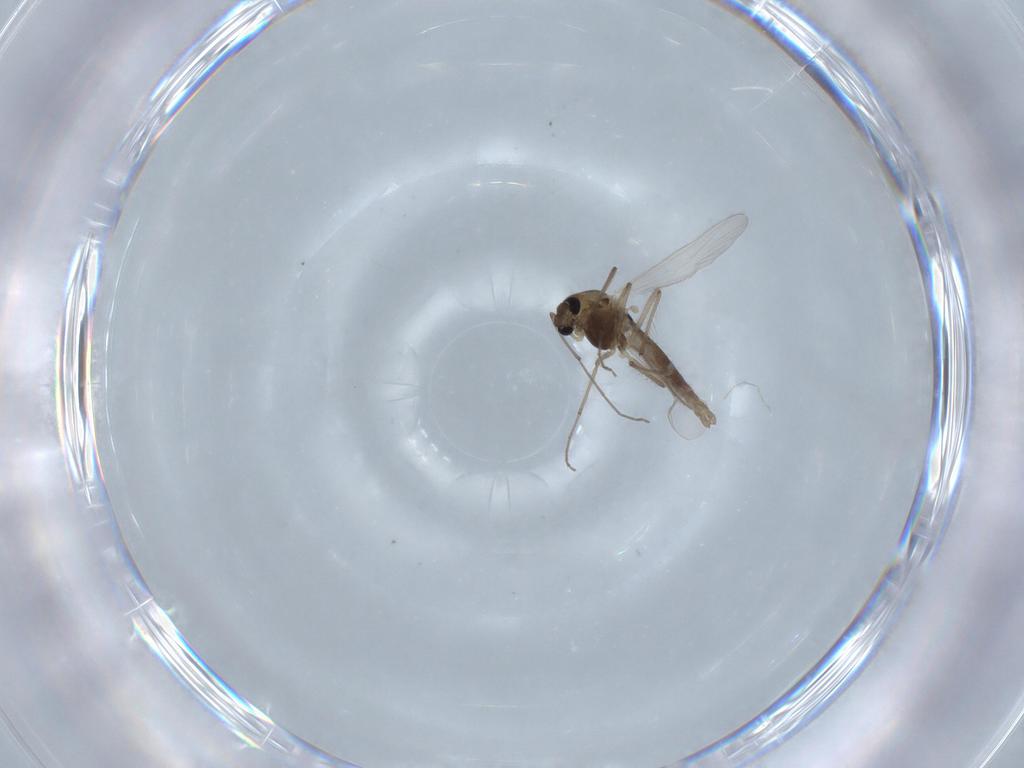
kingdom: Animalia
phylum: Arthropoda
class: Insecta
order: Diptera
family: Chironomidae
